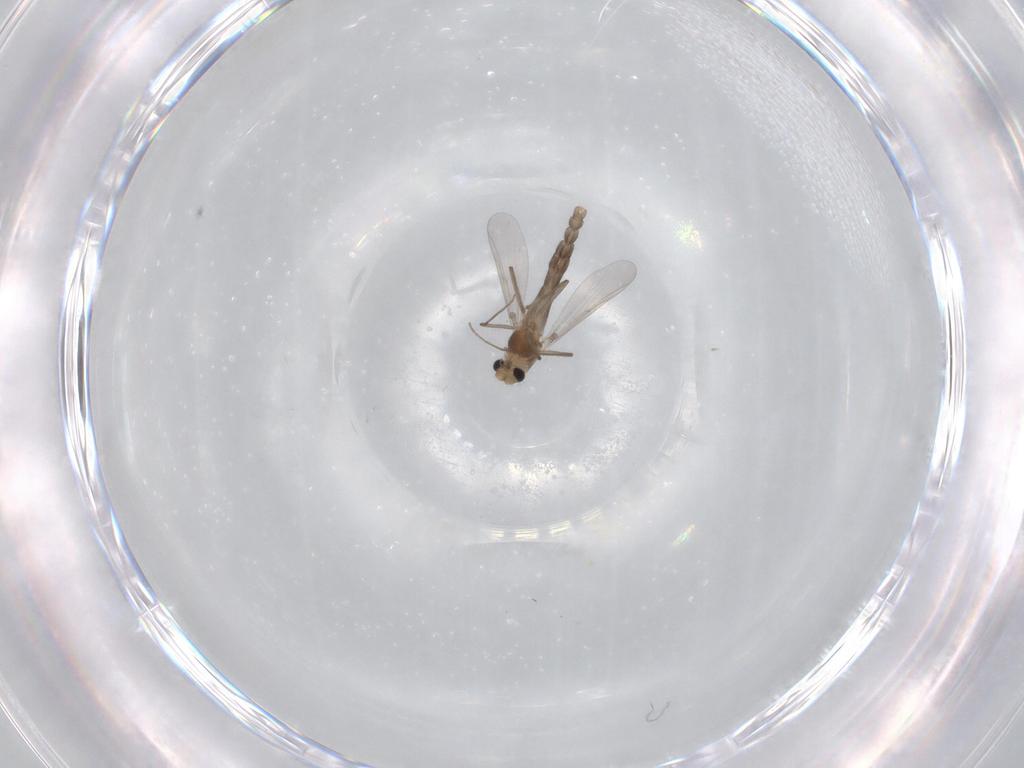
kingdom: Animalia
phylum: Arthropoda
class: Insecta
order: Diptera
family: Chironomidae
